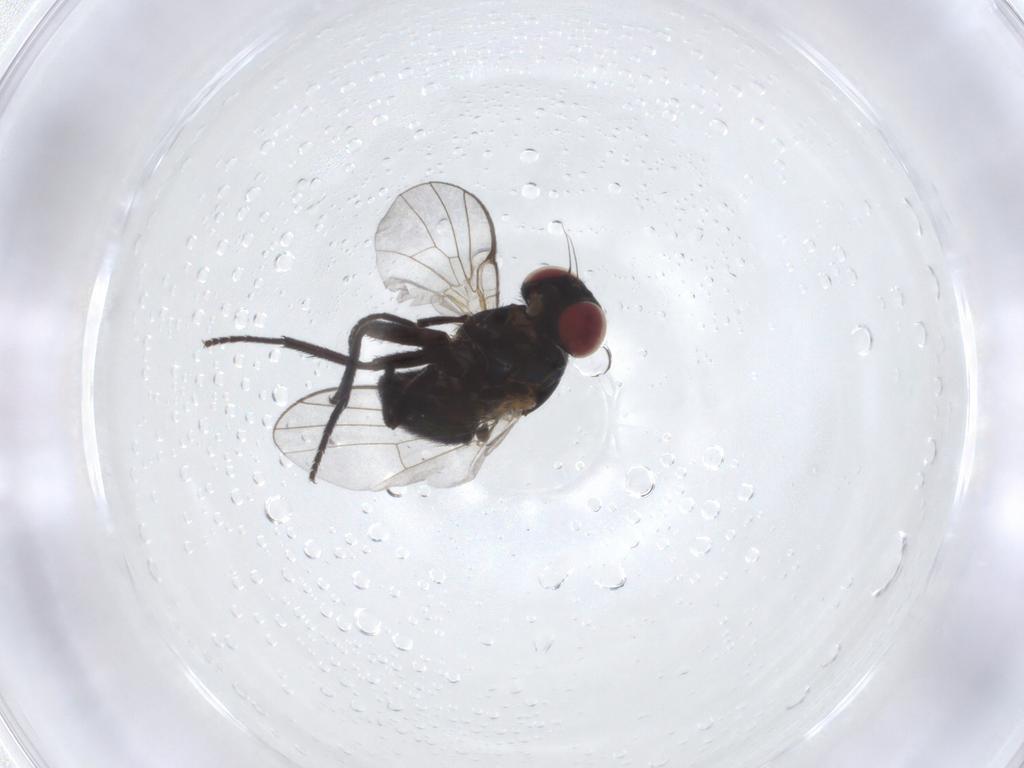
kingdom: Animalia
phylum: Arthropoda
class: Insecta
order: Diptera
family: Agromyzidae
